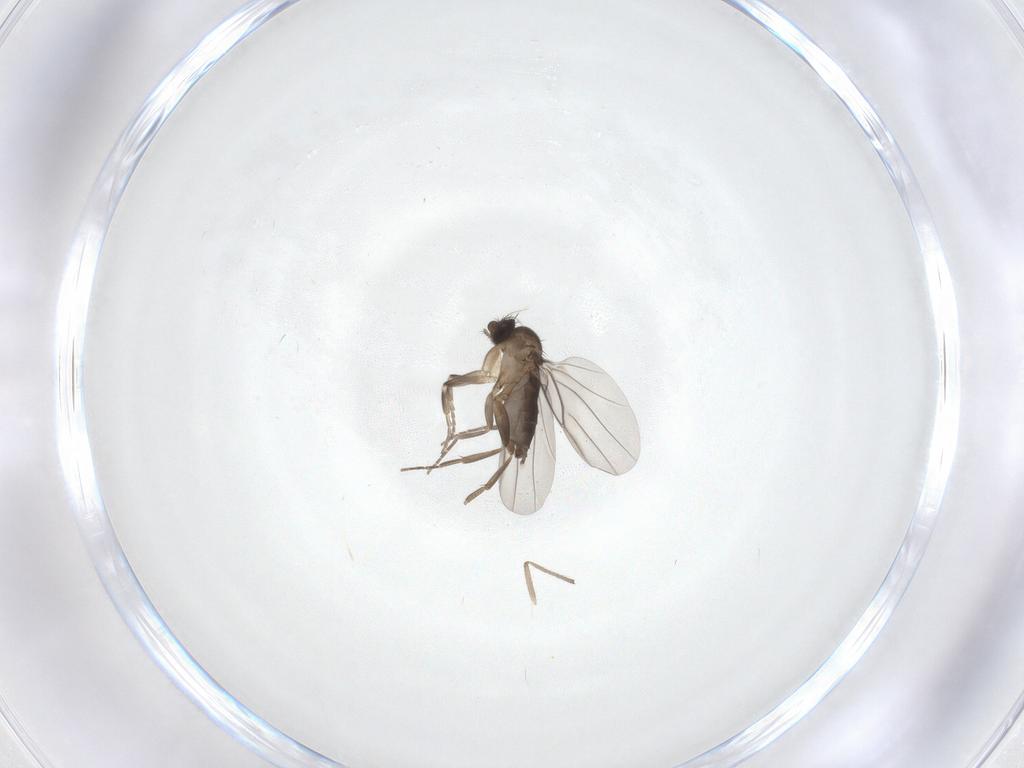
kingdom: Animalia
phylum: Arthropoda
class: Insecta
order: Diptera
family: Phoridae
